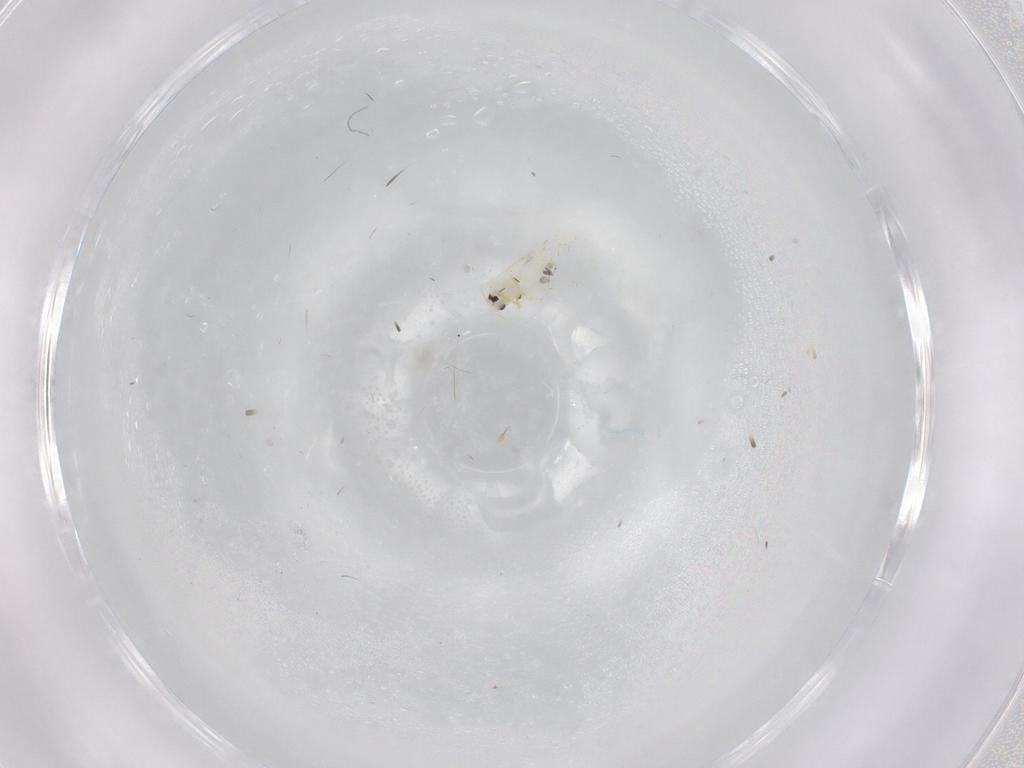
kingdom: Animalia
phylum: Arthropoda
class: Insecta
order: Hemiptera
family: Aleyrodidae
